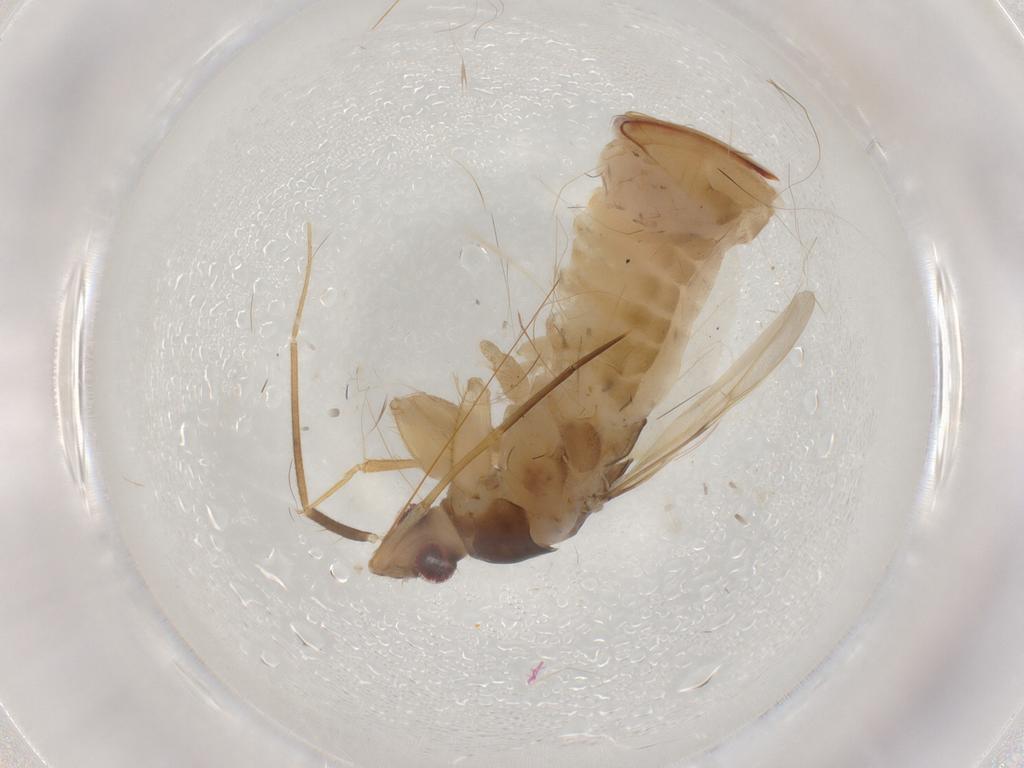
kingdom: Animalia
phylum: Arthropoda
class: Insecta
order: Hemiptera
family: Miridae
